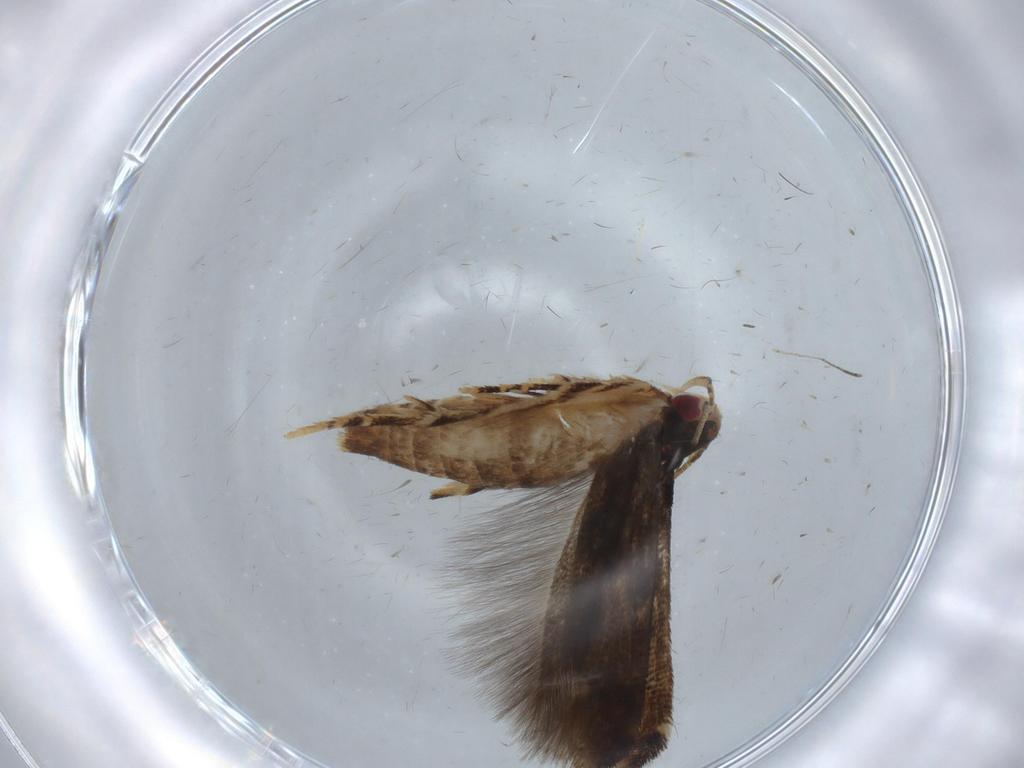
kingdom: Animalia
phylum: Arthropoda
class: Insecta
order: Lepidoptera
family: Momphidae
